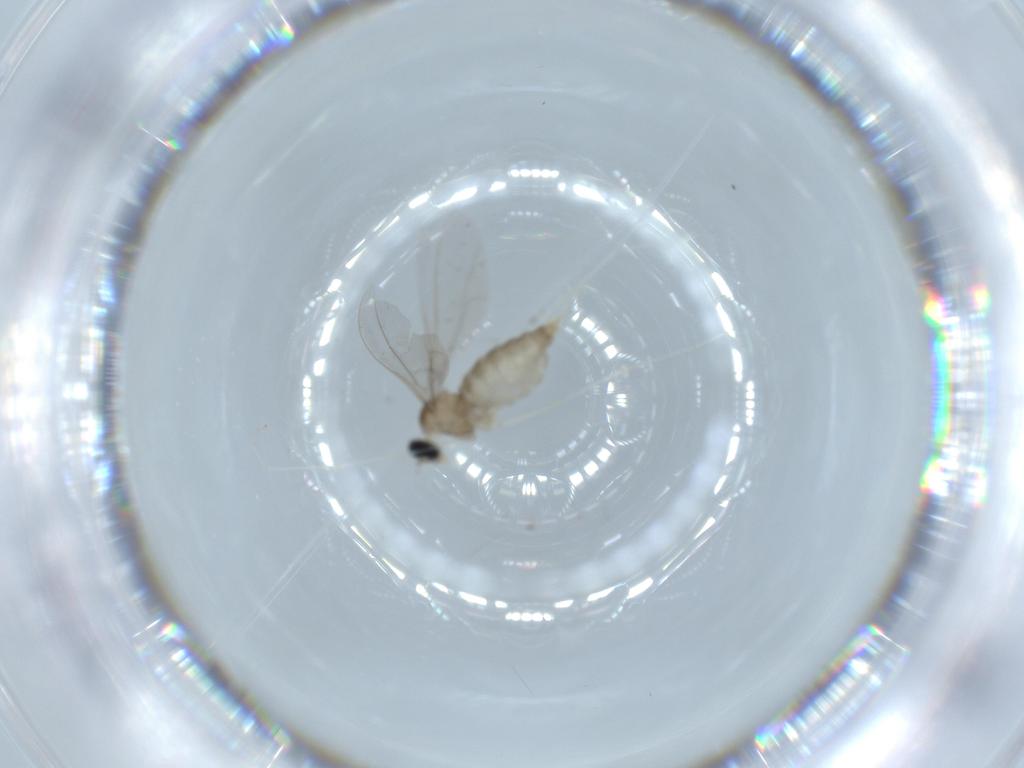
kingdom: Animalia
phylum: Arthropoda
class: Insecta
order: Diptera
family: Cecidomyiidae
